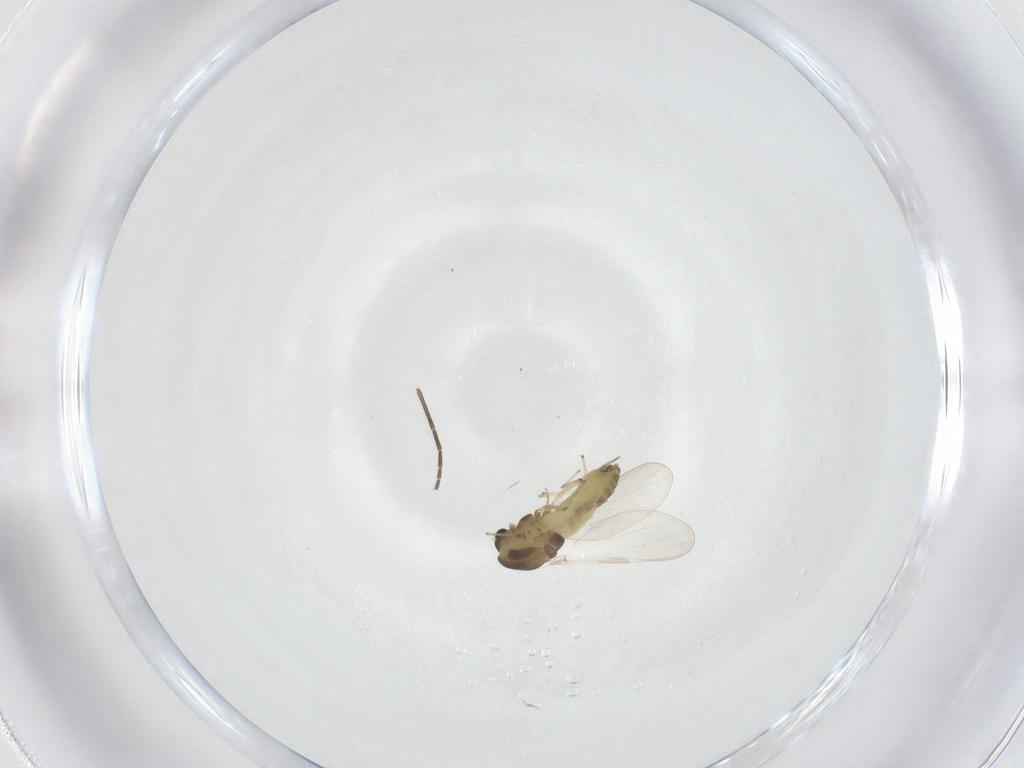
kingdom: Animalia
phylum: Arthropoda
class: Insecta
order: Diptera
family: Chironomidae
